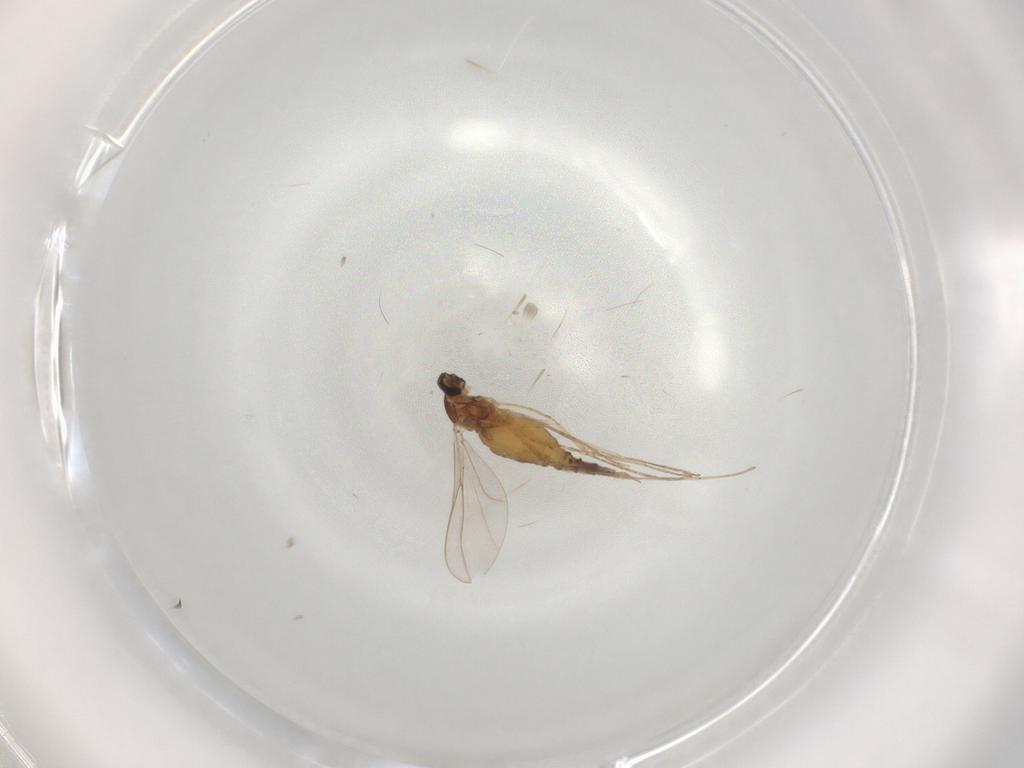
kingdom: Animalia
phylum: Arthropoda
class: Insecta
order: Diptera
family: Cecidomyiidae
